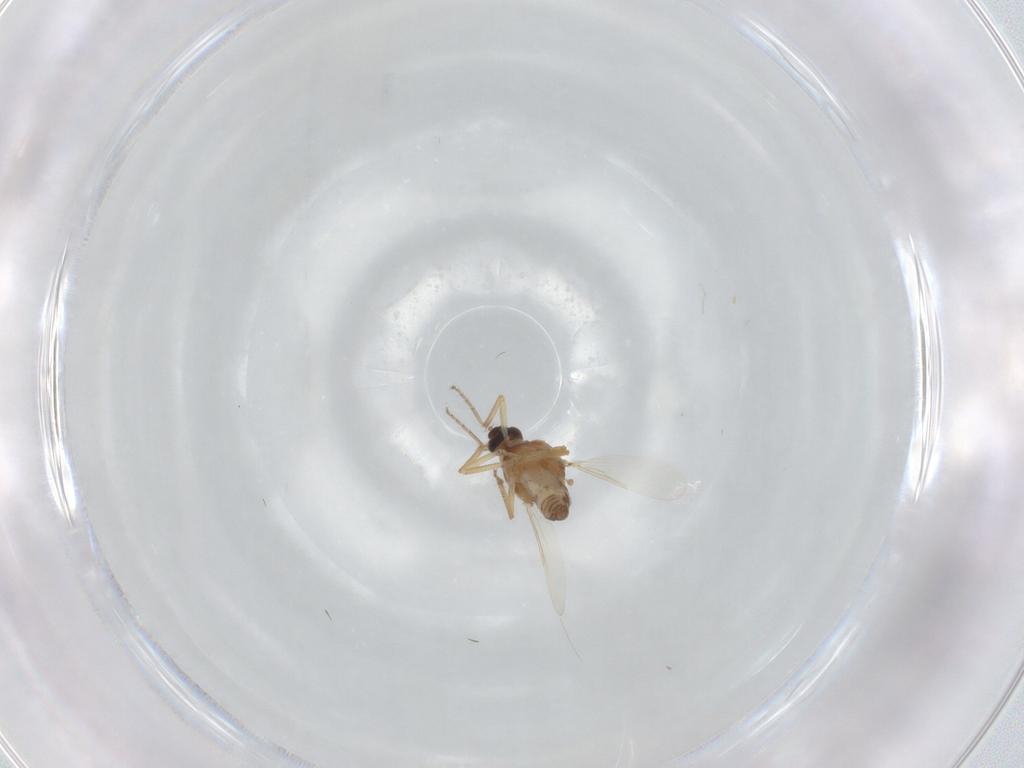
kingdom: Animalia
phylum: Arthropoda
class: Insecta
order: Diptera
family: Ceratopogonidae
